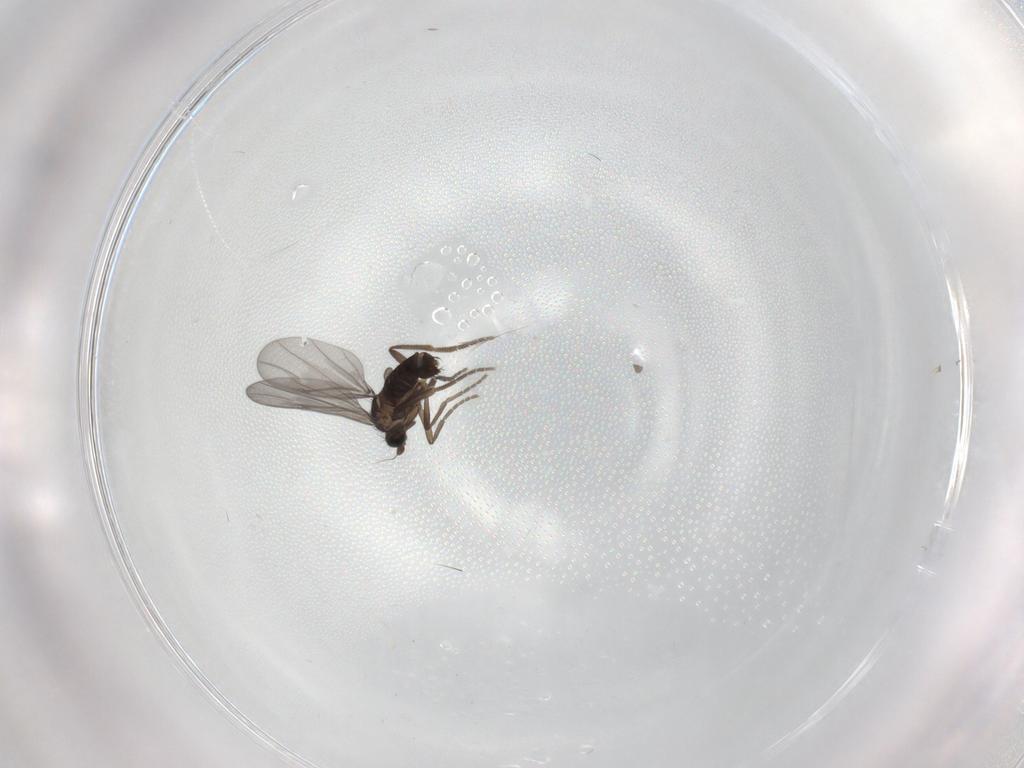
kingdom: Animalia
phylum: Arthropoda
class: Insecta
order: Diptera
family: Phoridae
